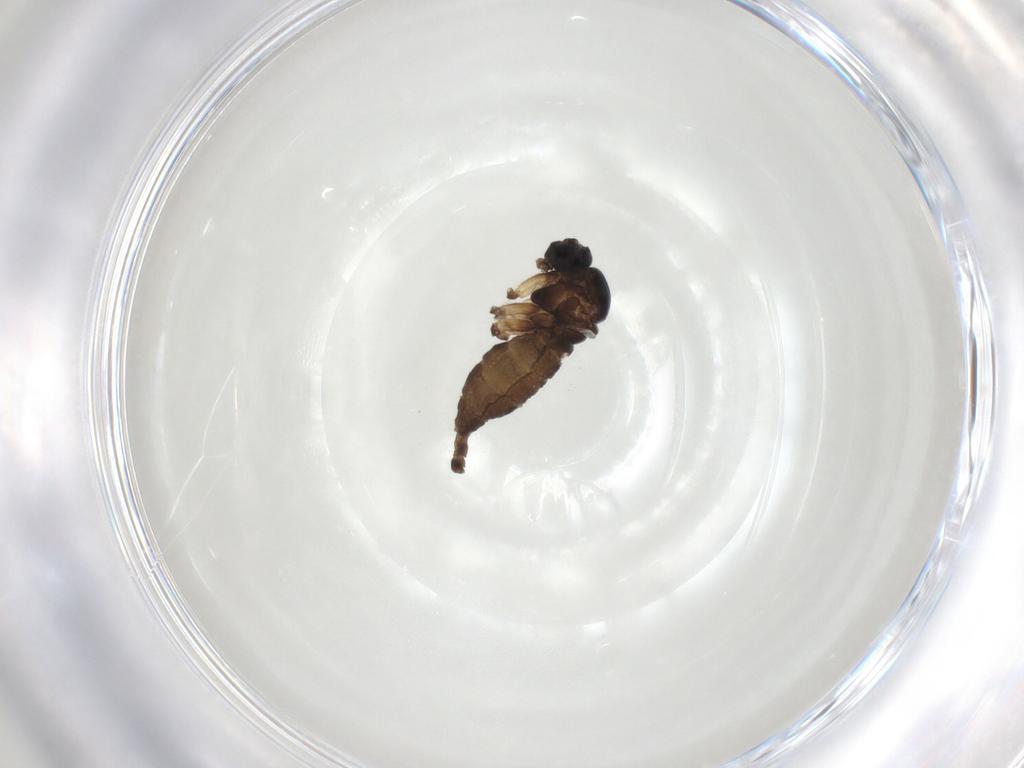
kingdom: Animalia
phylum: Arthropoda
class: Insecta
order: Diptera
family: Sciaridae
